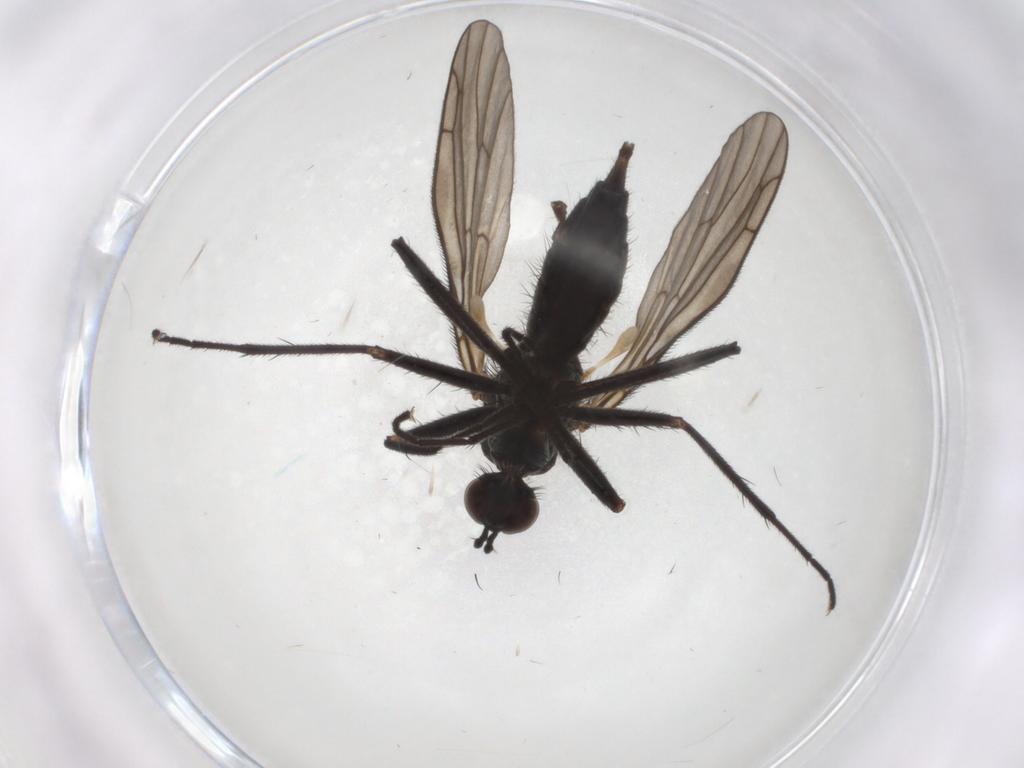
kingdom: Animalia
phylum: Arthropoda
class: Insecta
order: Diptera
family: Empididae
